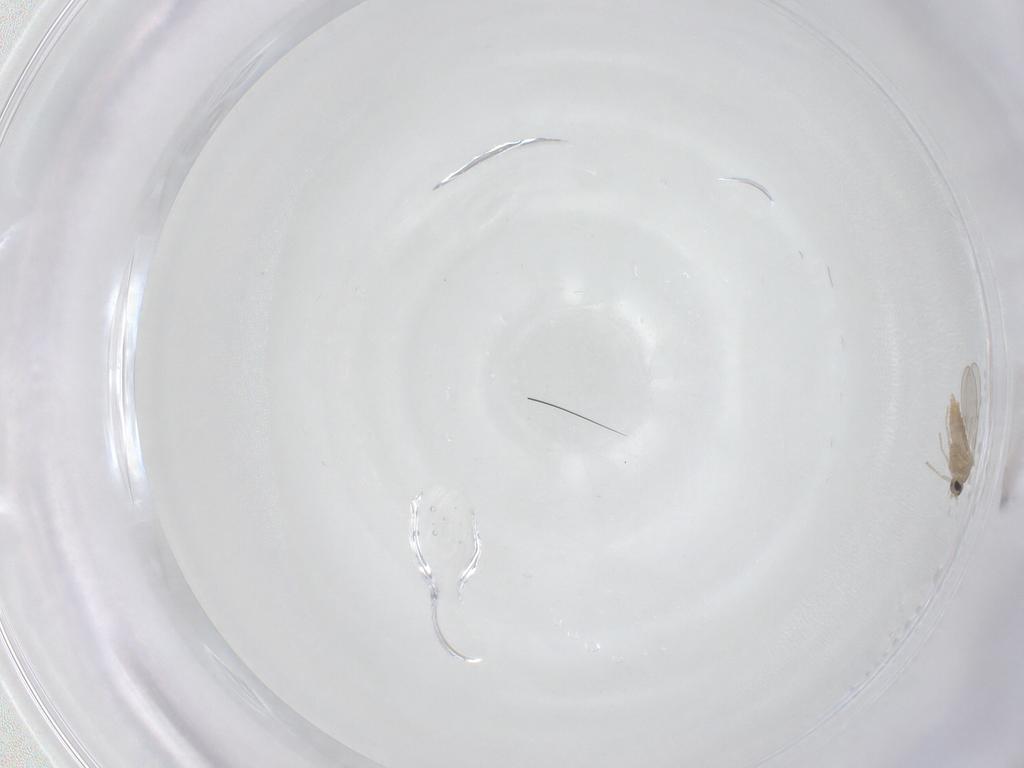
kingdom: Animalia
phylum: Arthropoda
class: Insecta
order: Diptera
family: Cecidomyiidae
